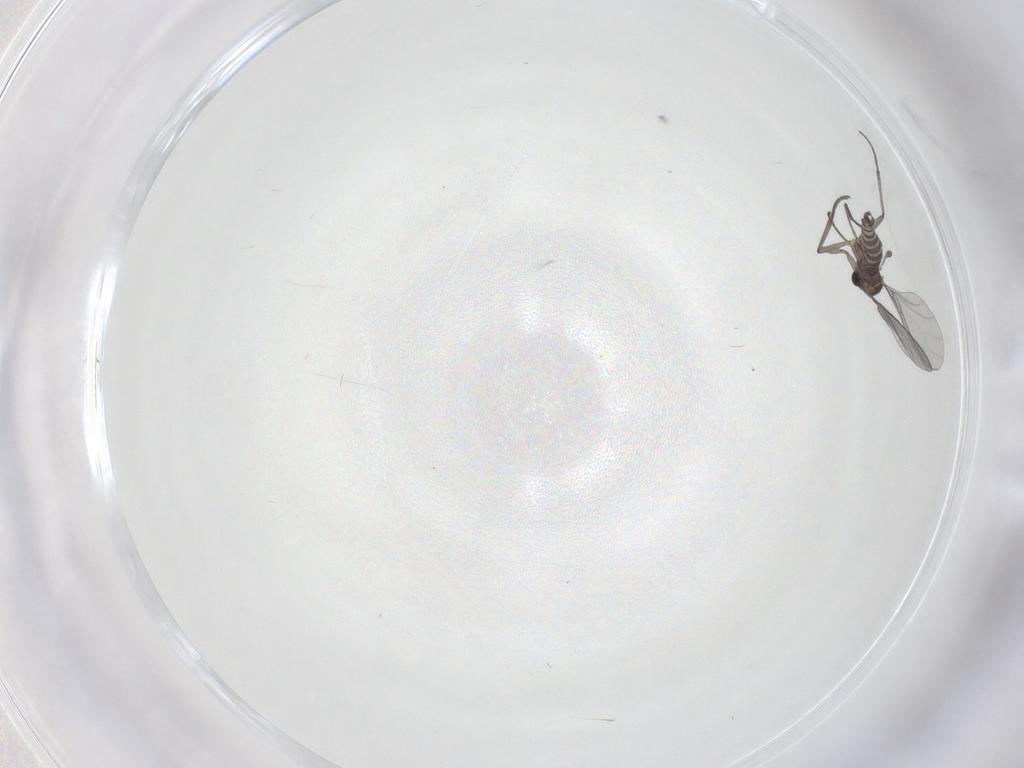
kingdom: Animalia
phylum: Arthropoda
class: Insecta
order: Diptera
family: Sciaridae
